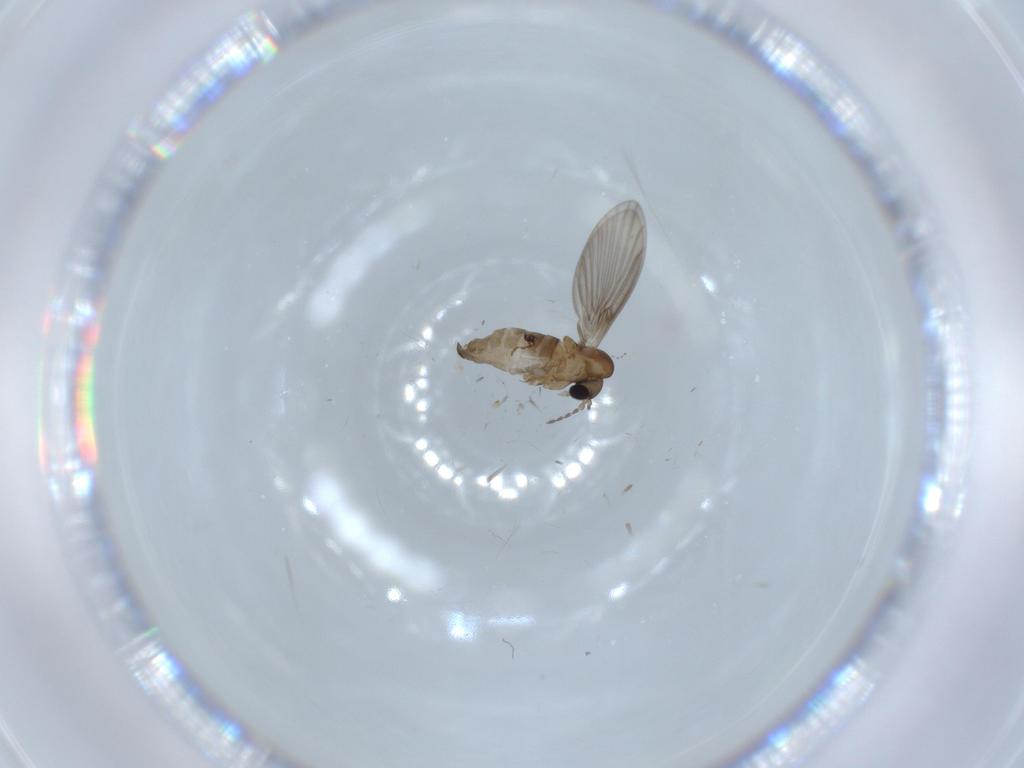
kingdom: Animalia
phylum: Arthropoda
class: Insecta
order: Diptera
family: Psychodidae
